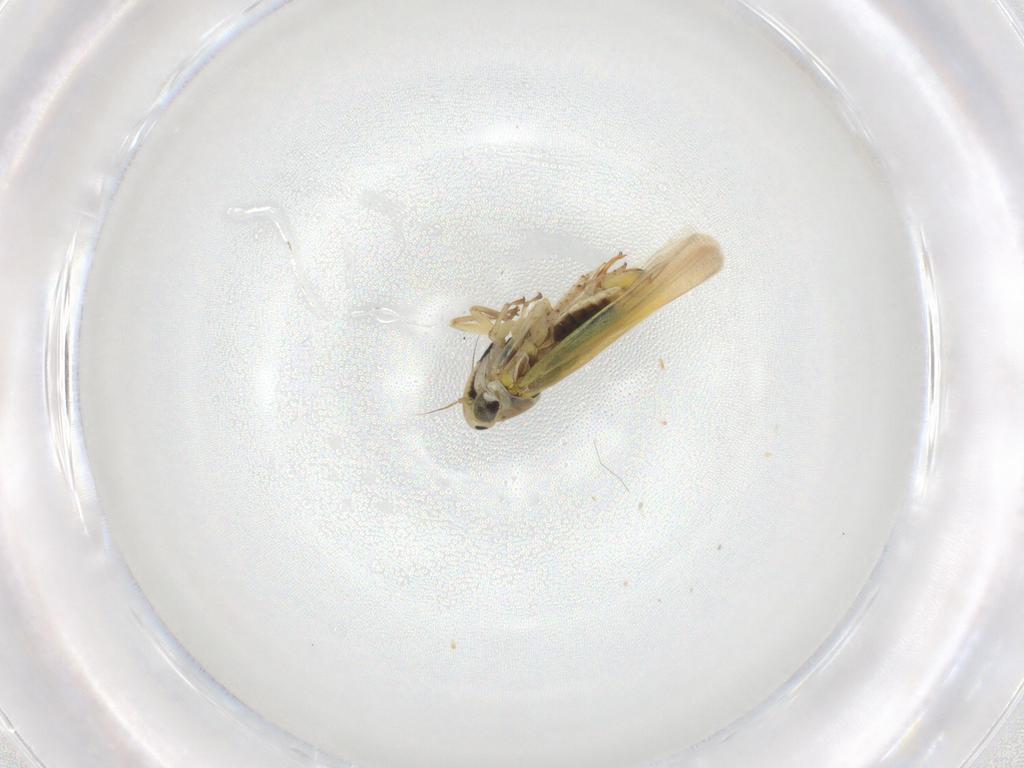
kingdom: Animalia
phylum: Arthropoda
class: Insecta
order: Hemiptera
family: Cicadellidae
